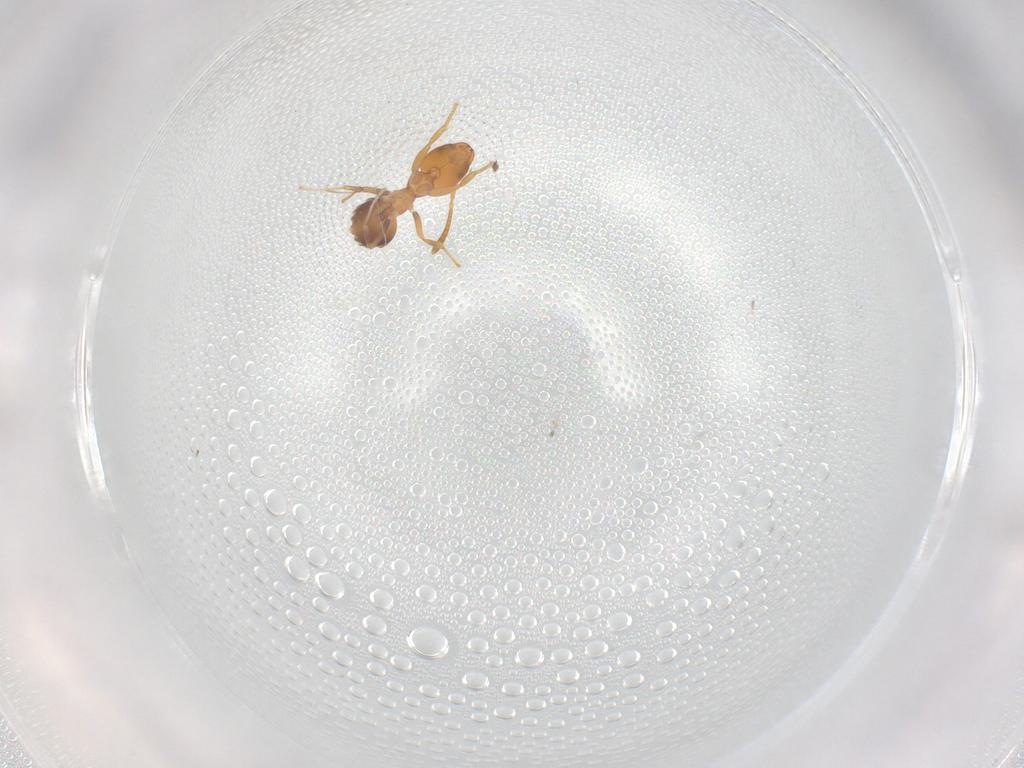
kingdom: Animalia
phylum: Arthropoda
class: Insecta
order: Hymenoptera
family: Formicidae
